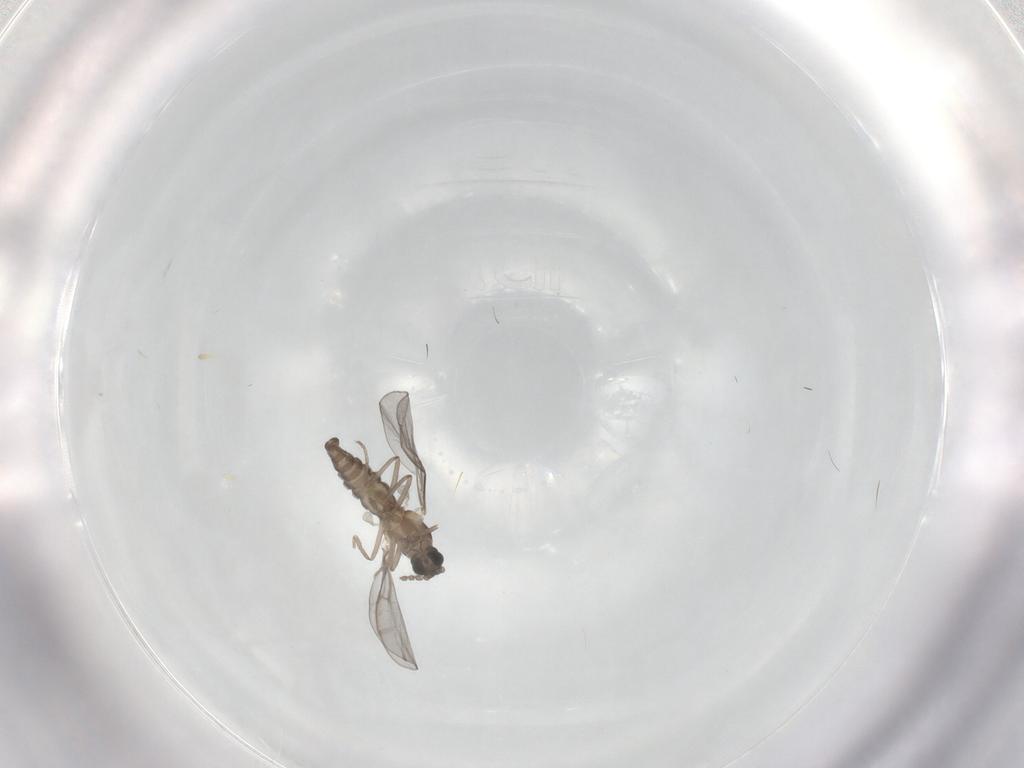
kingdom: Animalia
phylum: Arthropoda
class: Insecta
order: Diptera
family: Cecidomyiidae
